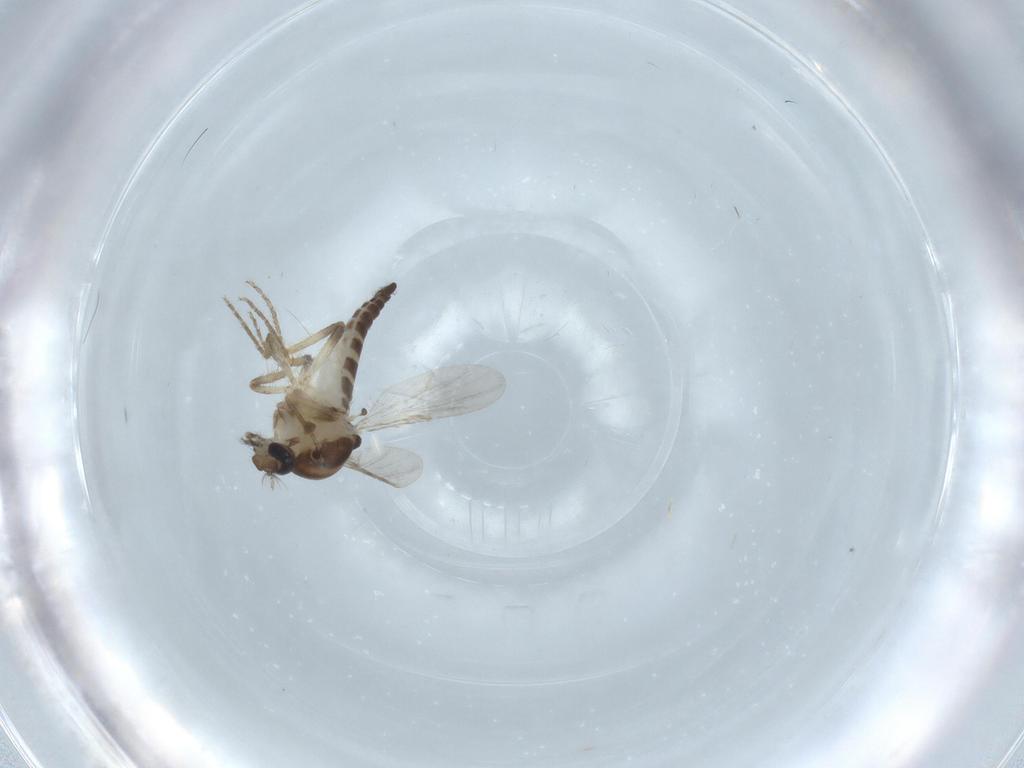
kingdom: Animalia
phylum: Arthropoda
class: Insecta
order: Diptera
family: Ceratopogonidae
